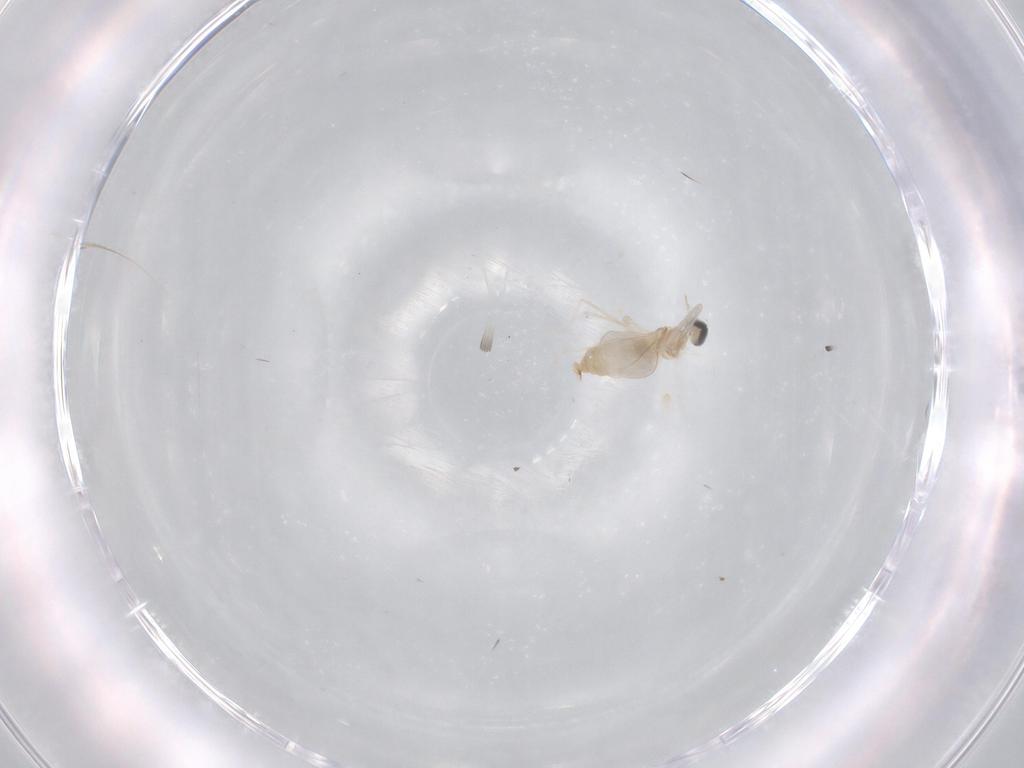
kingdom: Animalia
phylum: Arthropoda
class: Insecta
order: Diptera
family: Cecidomyiidae
